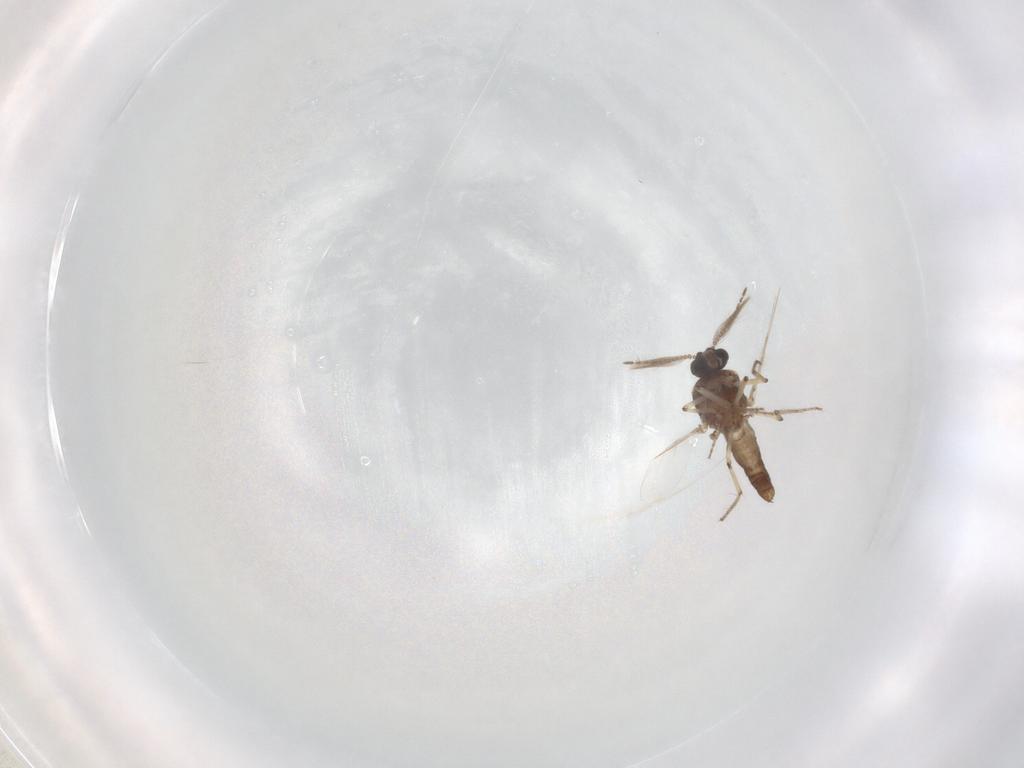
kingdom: Animalia
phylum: Arthropoda
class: Insecta
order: Diptera
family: Ceratopogonidae
